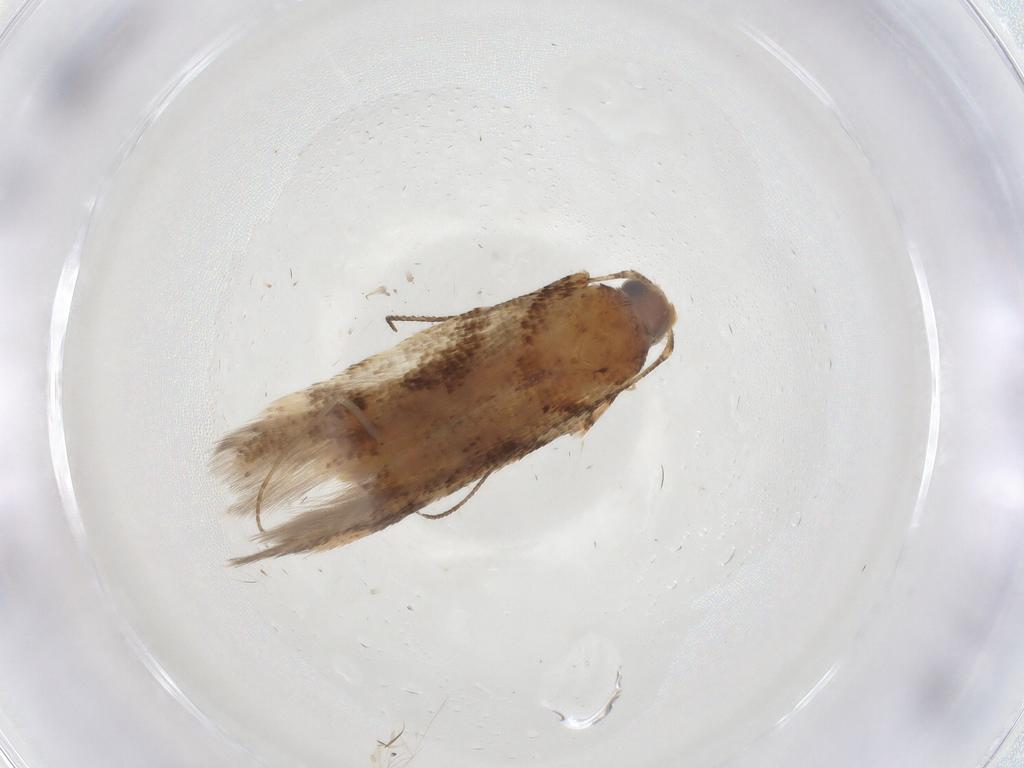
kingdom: Animalia
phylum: Arthropoda
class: Insecta
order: Lepidoptera
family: Gelechiidae
